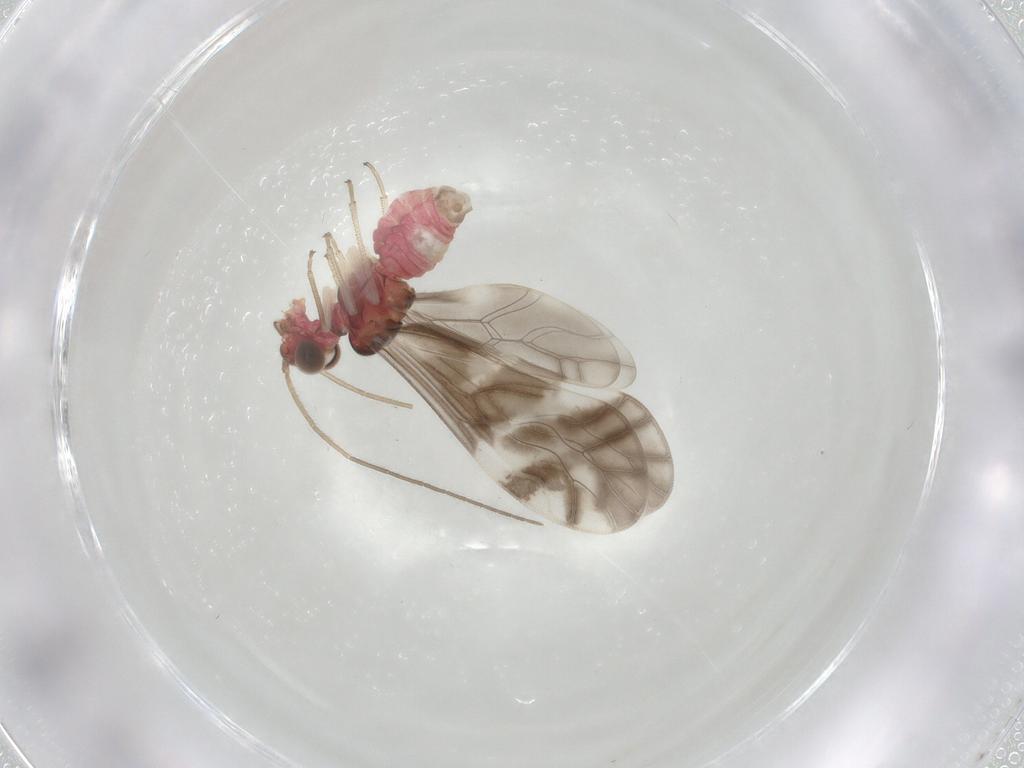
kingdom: Animalia
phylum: Arthropoda
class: Insecta
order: Psocodea
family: Caeciliusidae
